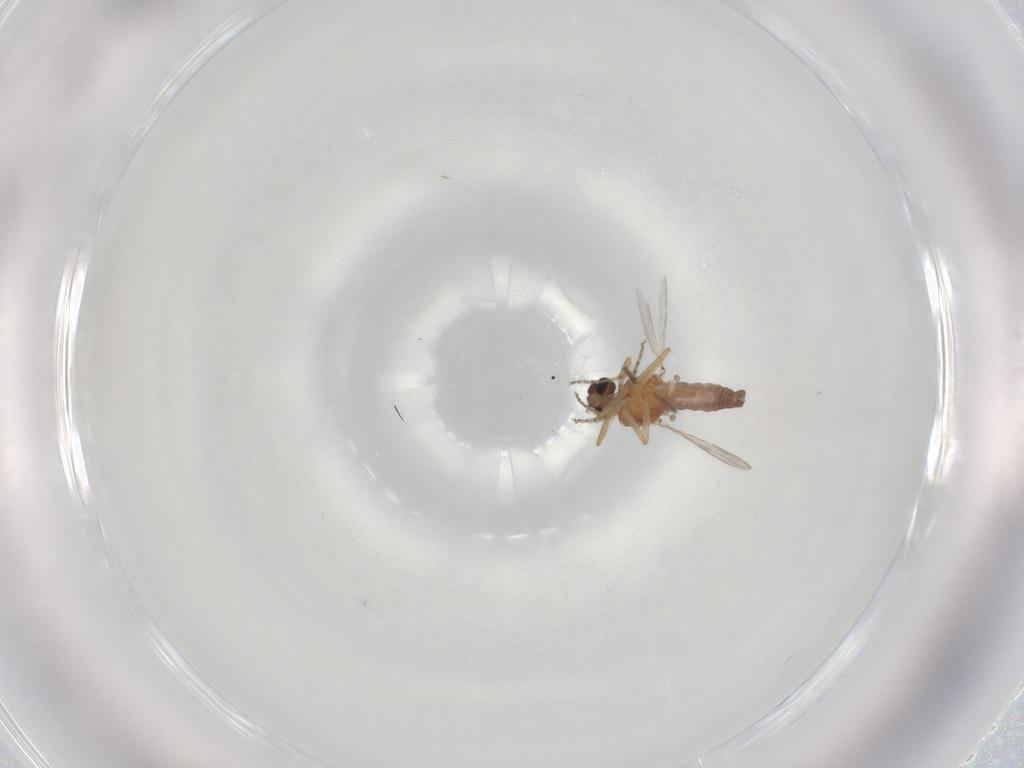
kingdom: Animalia
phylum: Arthropoda
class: Insecta
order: Diptera
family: Ceratopogonidae
